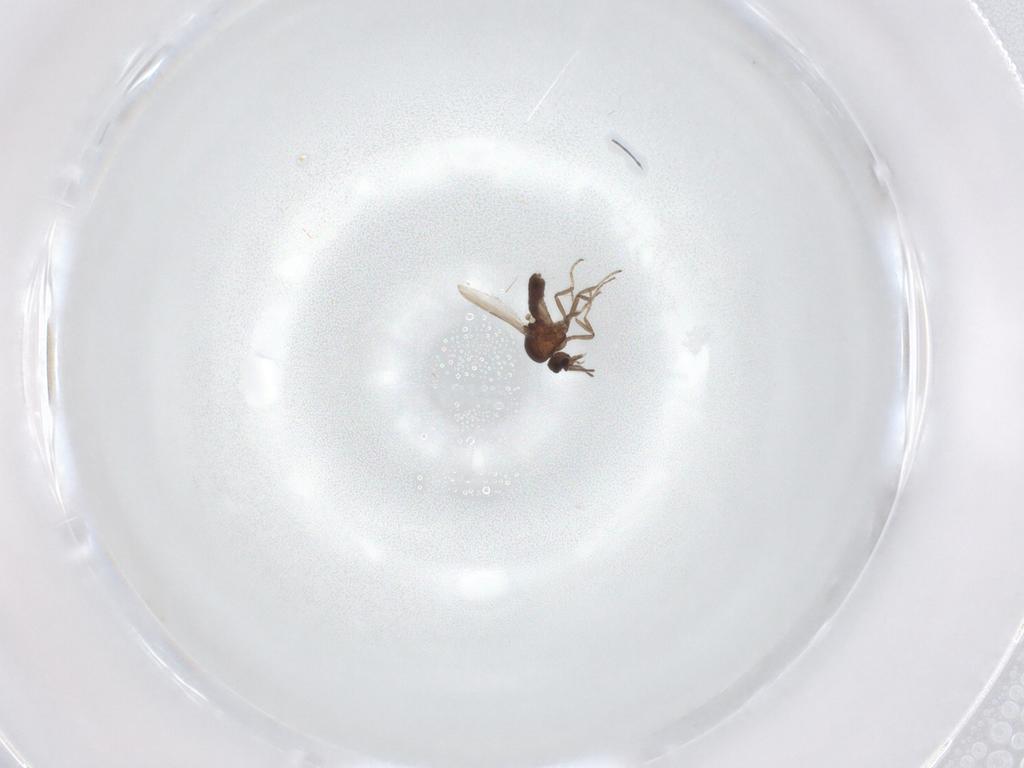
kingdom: Animalia
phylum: Arthropoda
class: Insecta
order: Diptera
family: Ceratopogonidae
